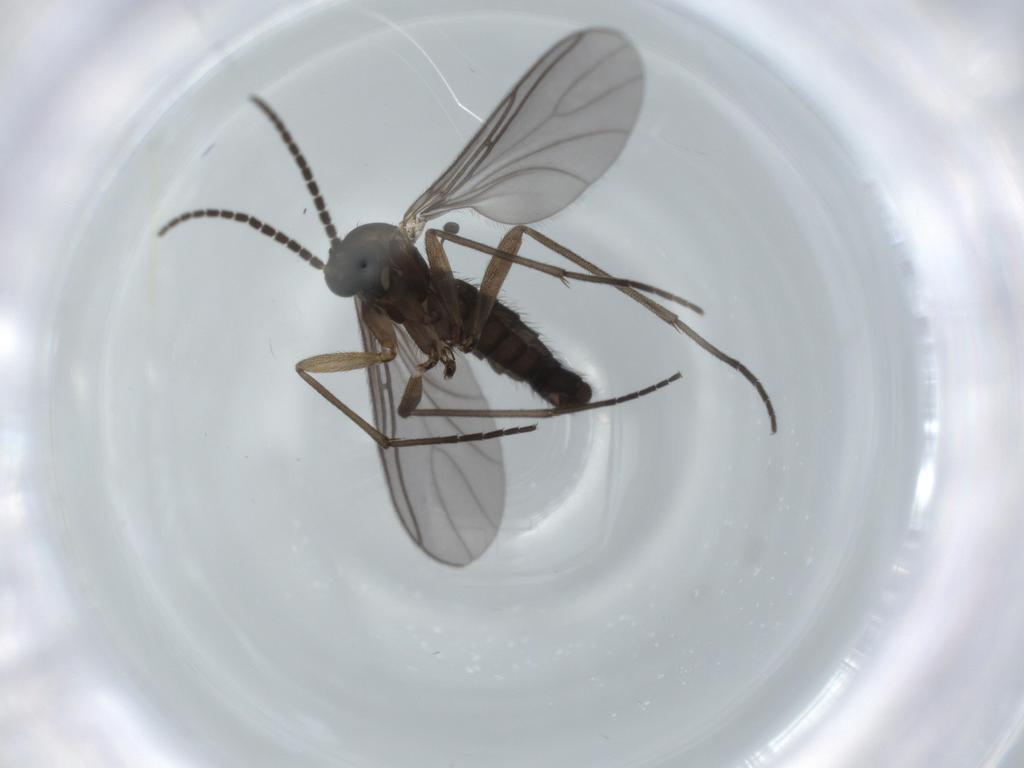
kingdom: Animalia
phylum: Arthropoda
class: Insecta
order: Diptera
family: Sciaridae
